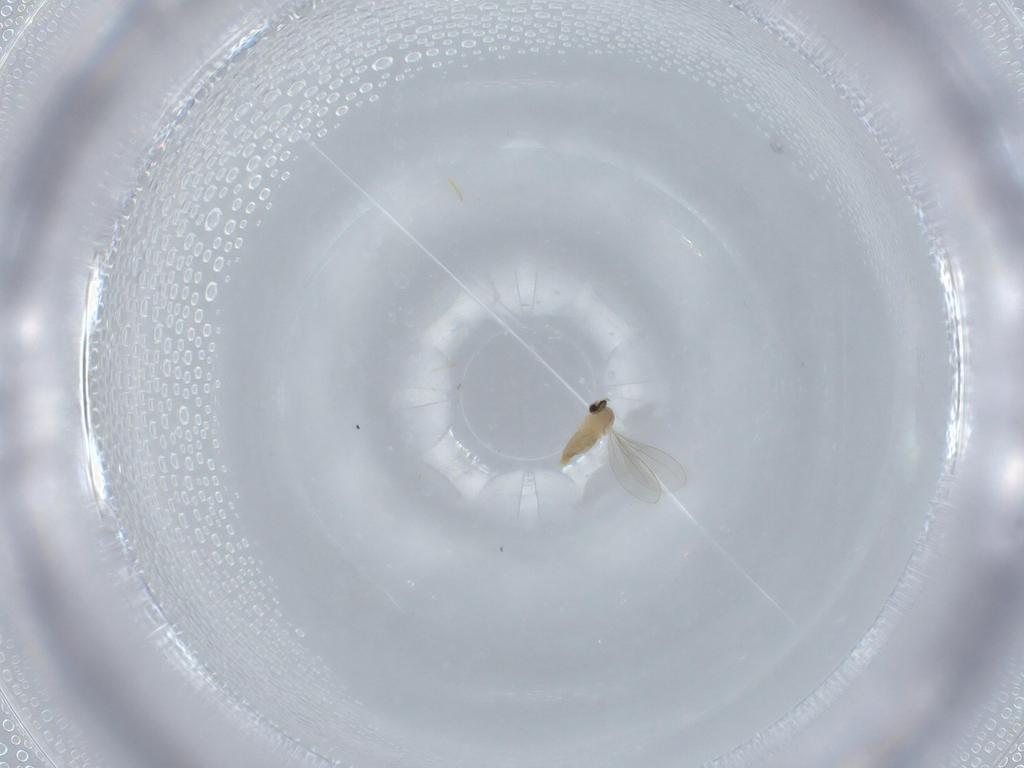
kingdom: Animalia
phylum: Arthropoda
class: Insecta
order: Diptera
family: Cecidomyiidae
